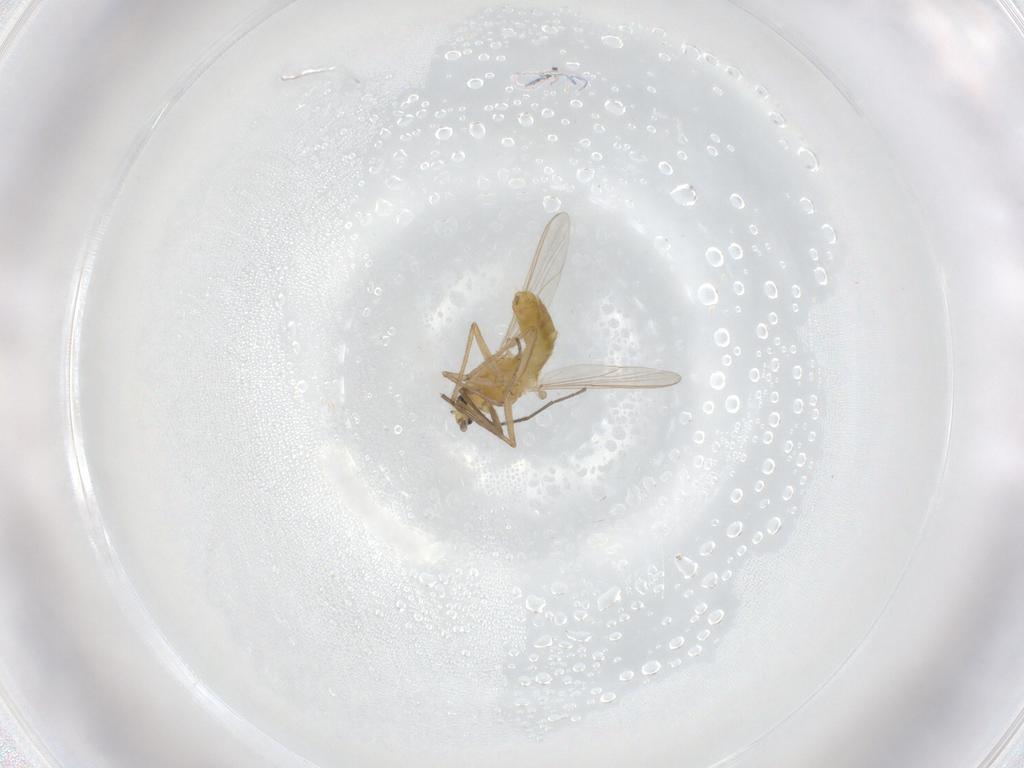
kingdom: Animalia
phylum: Arthropoda
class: Insecta
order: Diptera
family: Chironomidae
